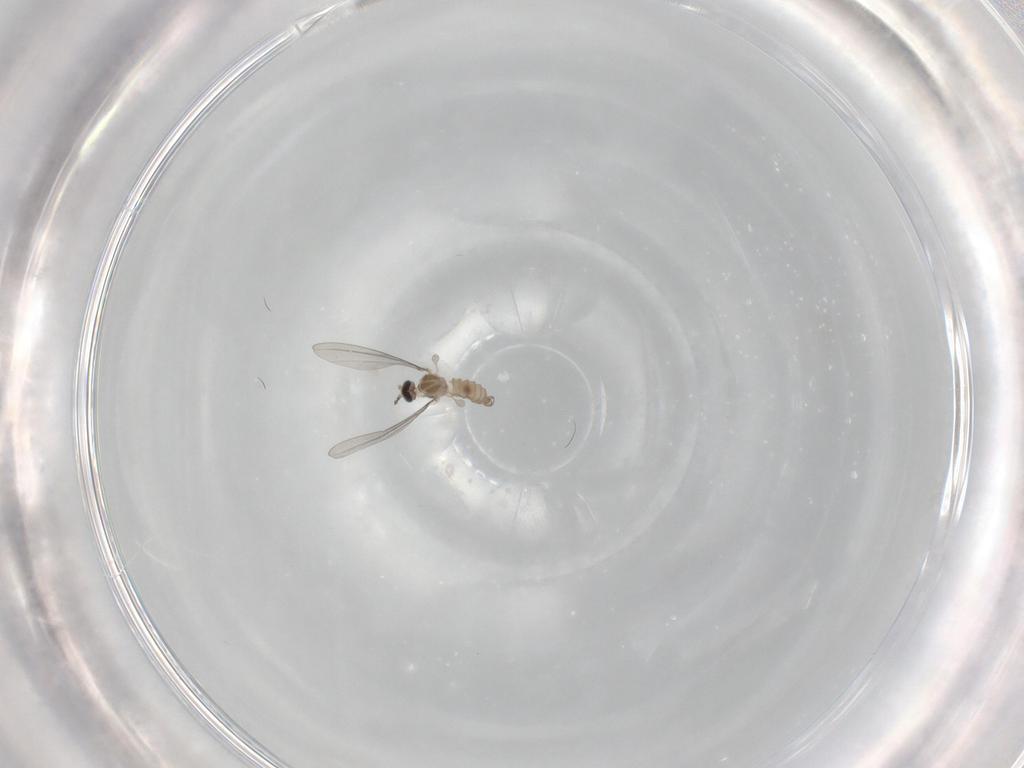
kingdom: Animalia
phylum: Arthropoda
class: Insecta
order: Diptera
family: Cecidomyiidae
